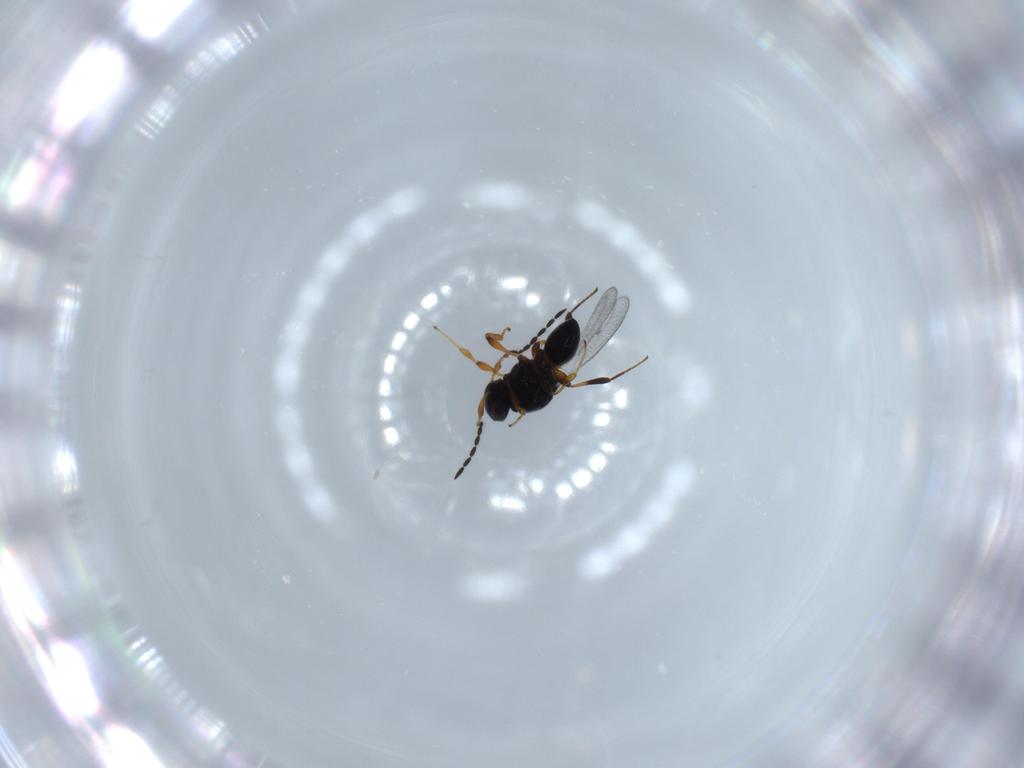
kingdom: Animalia
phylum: Arthropoda
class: Insecta
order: Hymenoptera
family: Platygastridae
